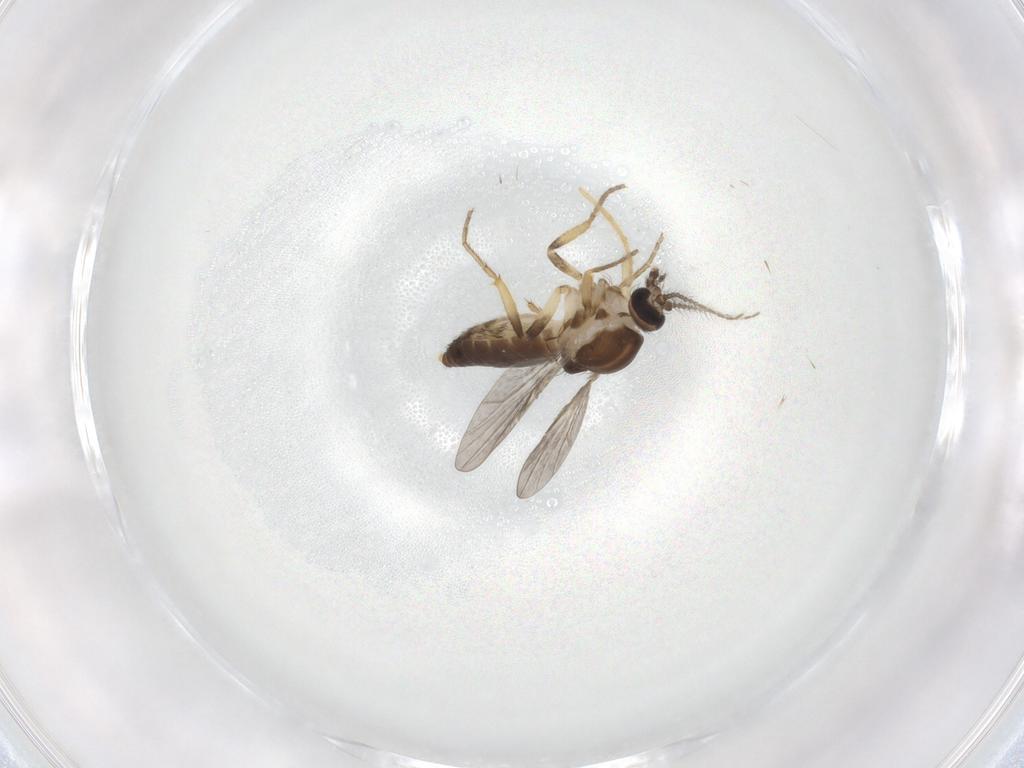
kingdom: Animalia
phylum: Arthropoda
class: Insecta
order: Diptera
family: Ceratopogonidae
